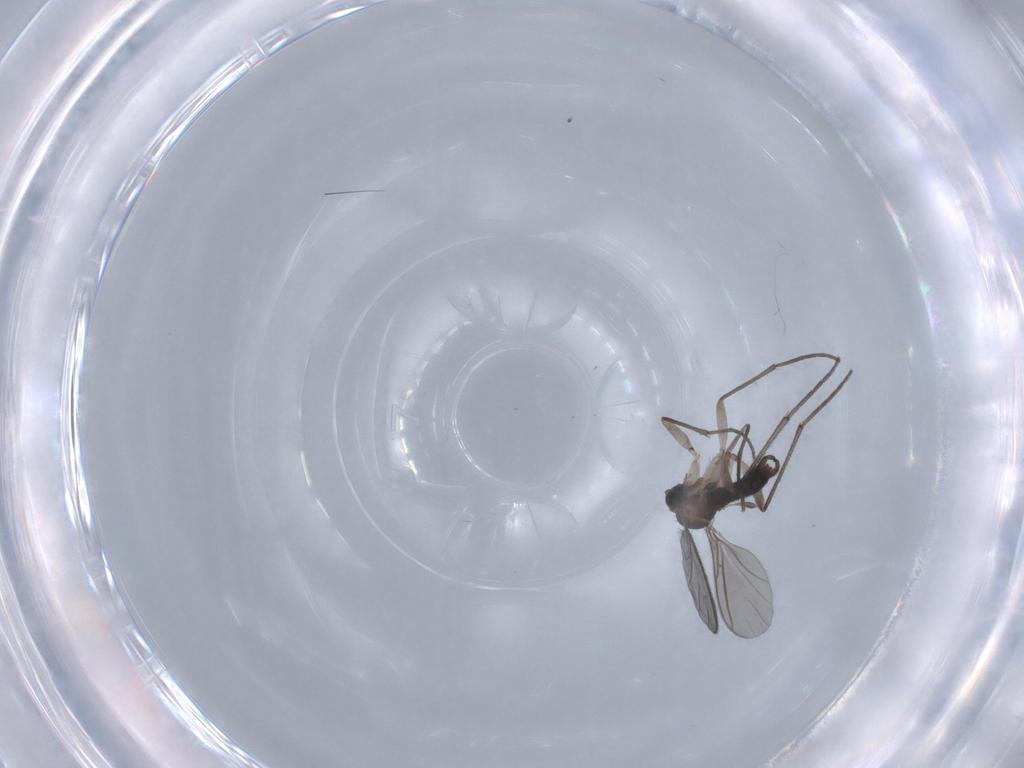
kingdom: Animalia
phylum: Arthropoda
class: Insecta
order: Diptera
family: Sciaridae
